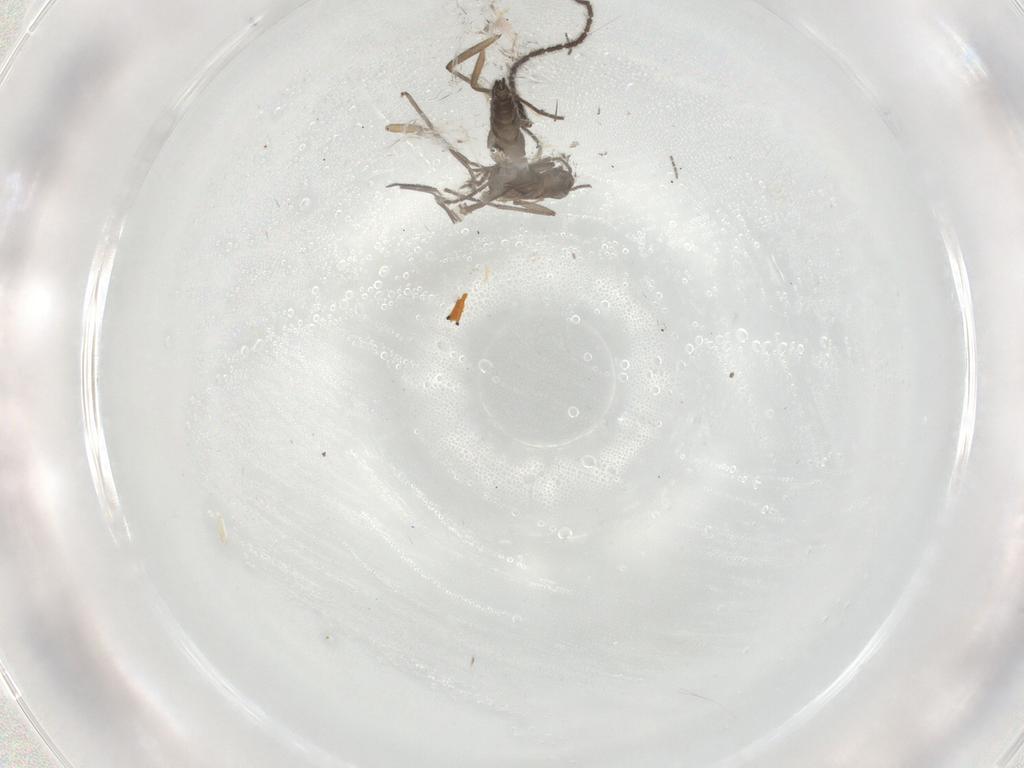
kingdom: Animalia
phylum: Arthropoda
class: Insecta
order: Diptera
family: Sciaridae
